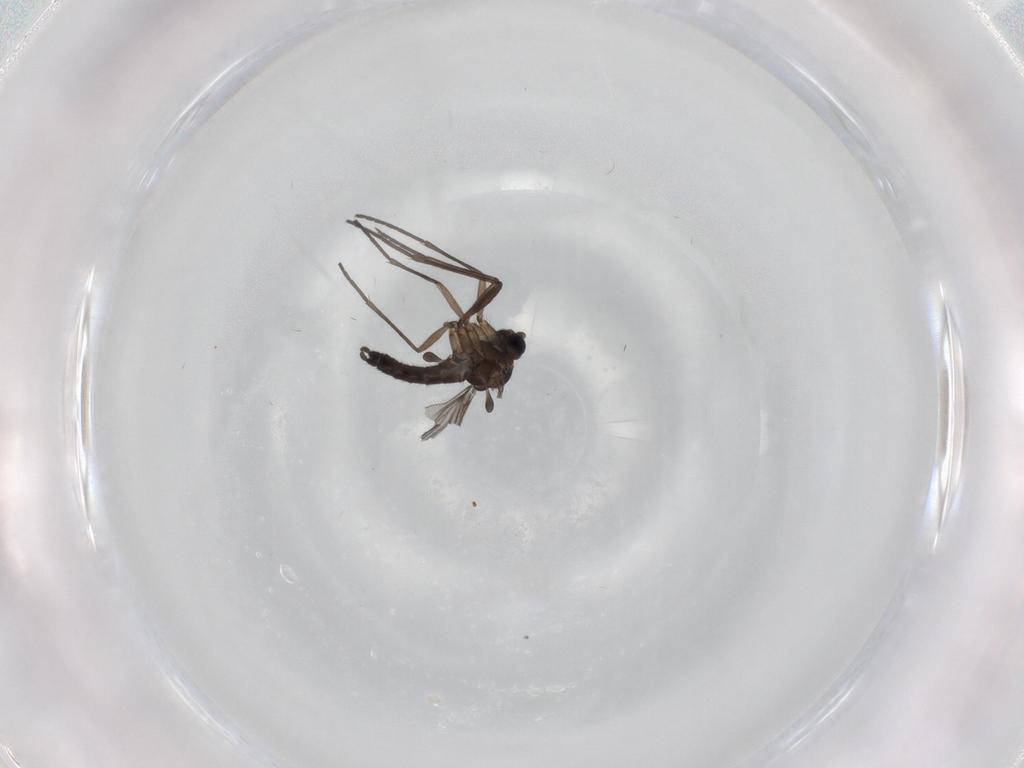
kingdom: Animalia
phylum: Arthropoda
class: Insecta
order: Diptera
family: Sciaridae
